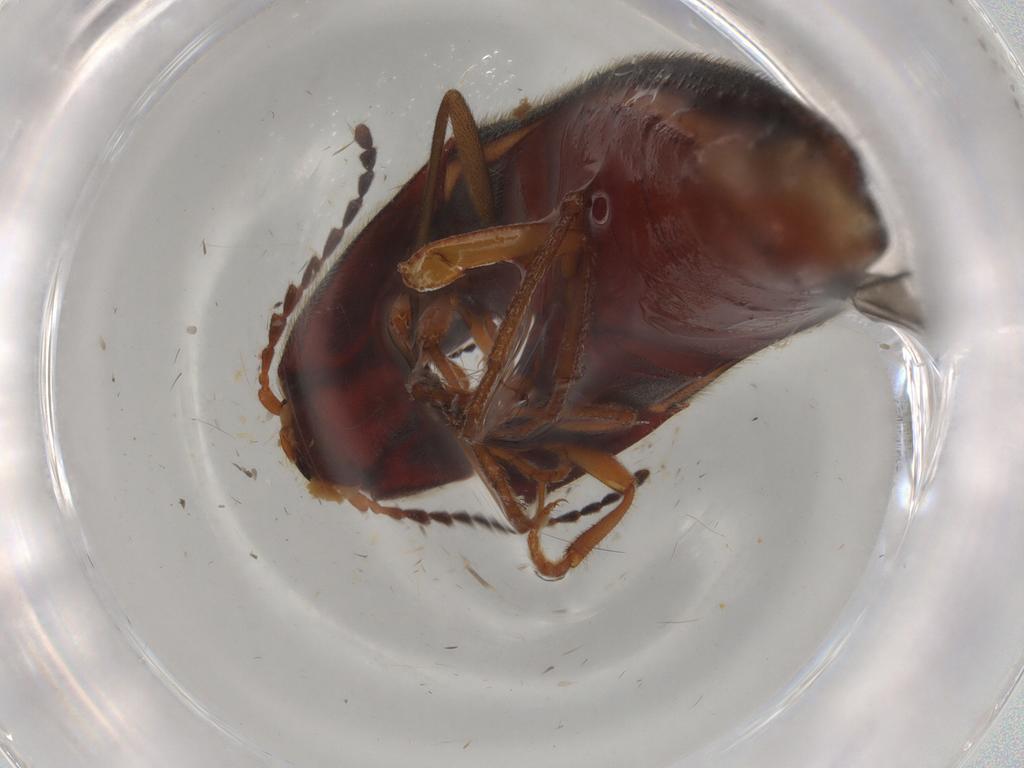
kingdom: Animalia
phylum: Arthropoda
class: Insecta
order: Coleoptera
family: Elateridae
